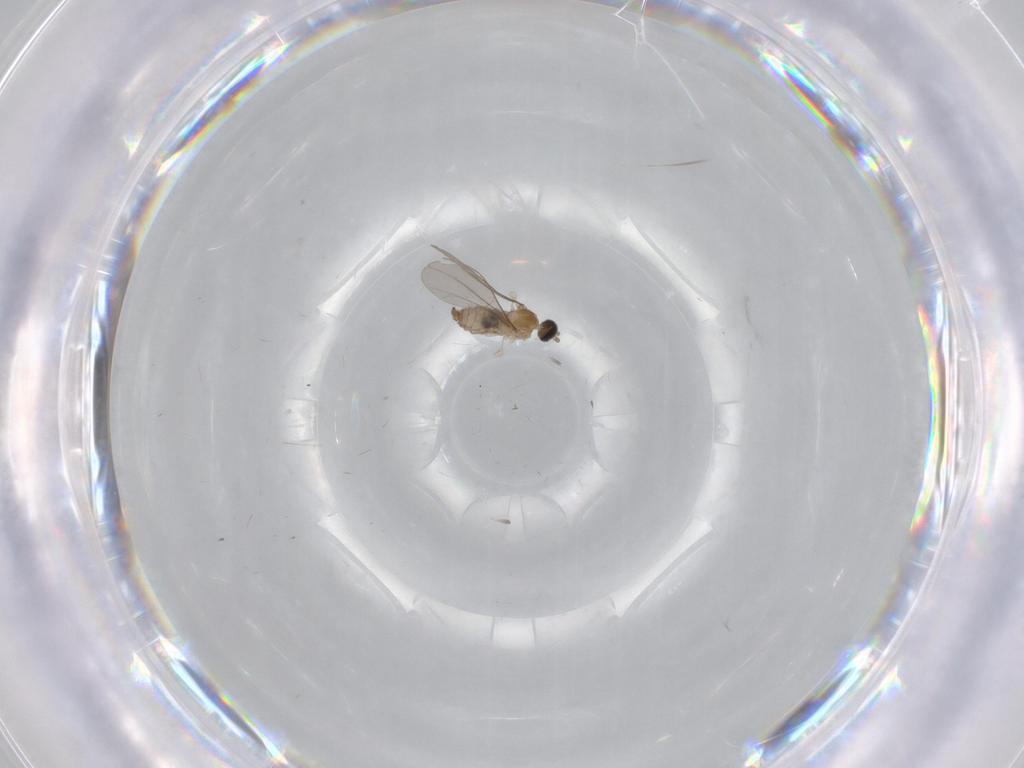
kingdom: Animalia
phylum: Arthropoda
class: Insecta
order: Diptera
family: Cecidomyiidae
